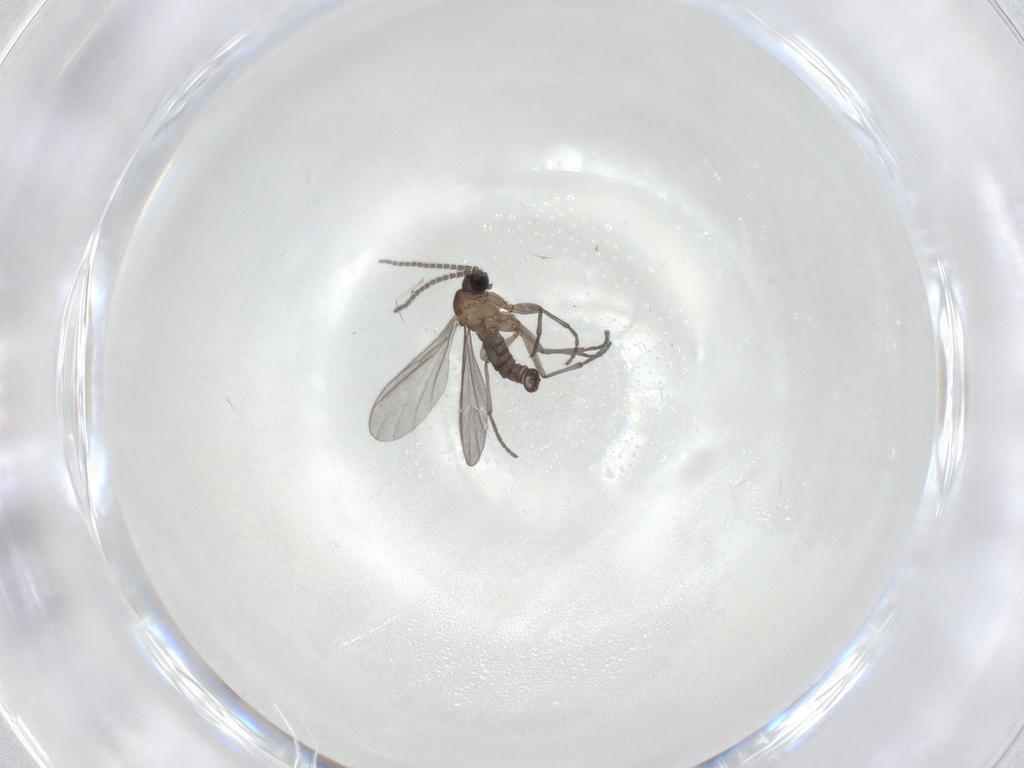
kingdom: Animalia
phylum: Arthropoda
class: Insecta
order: Diptera
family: Sciaridae
